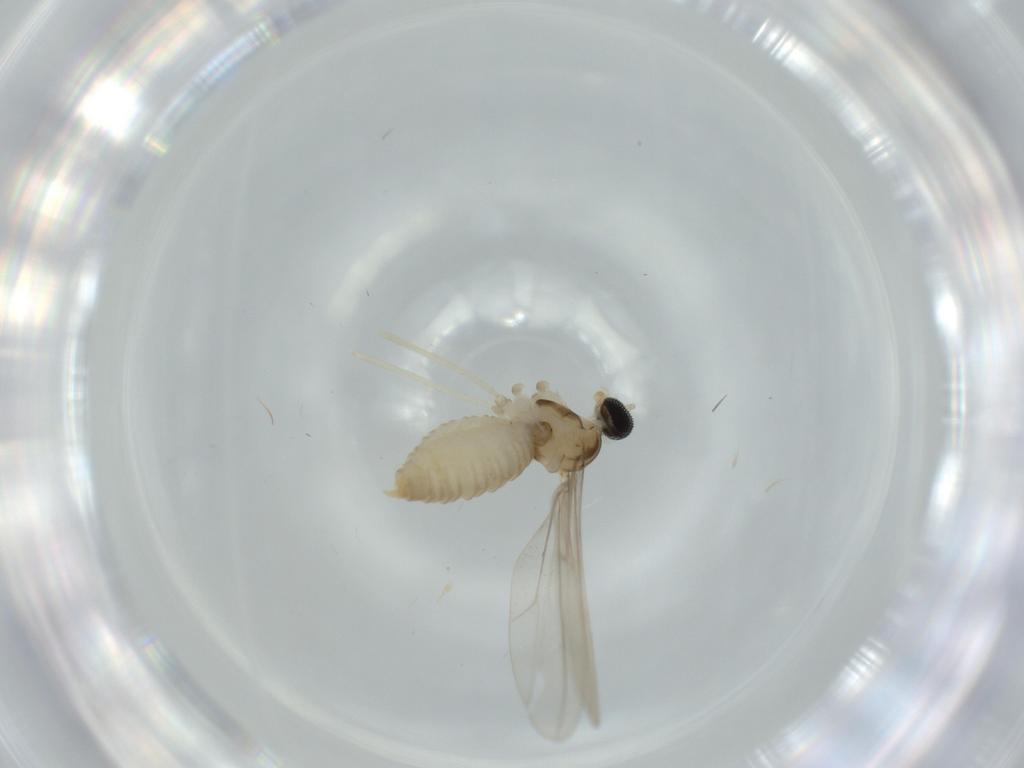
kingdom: Animalia
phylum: Arthropoda
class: Insecta
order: Diptera
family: Cecidomyiidae
